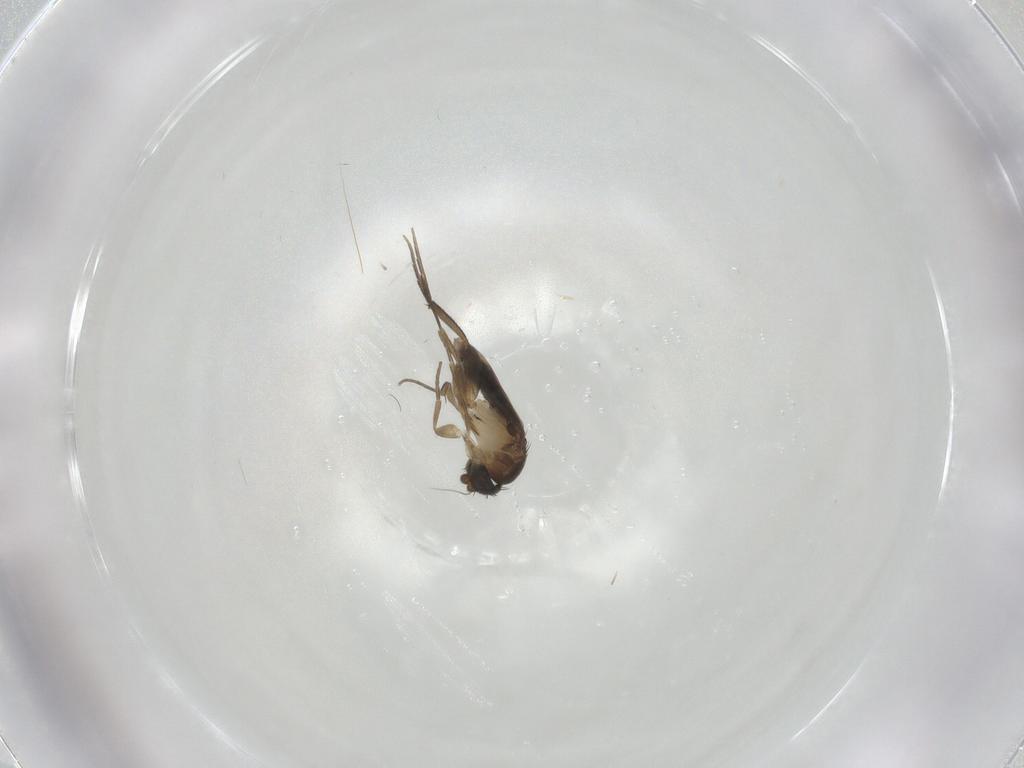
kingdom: Animalia
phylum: Arthropoda
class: Insecta
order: Diptera
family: Phoridae
